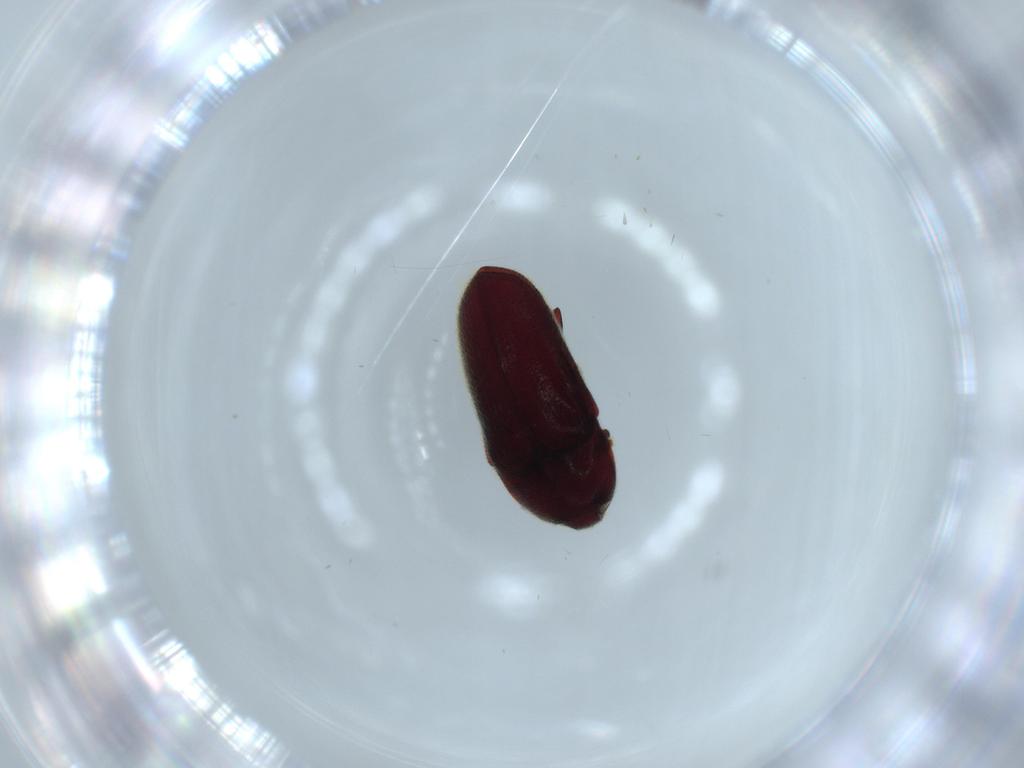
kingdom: Animalia
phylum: Arthropoda
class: Insecta
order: Coleoptera
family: Throscidae
